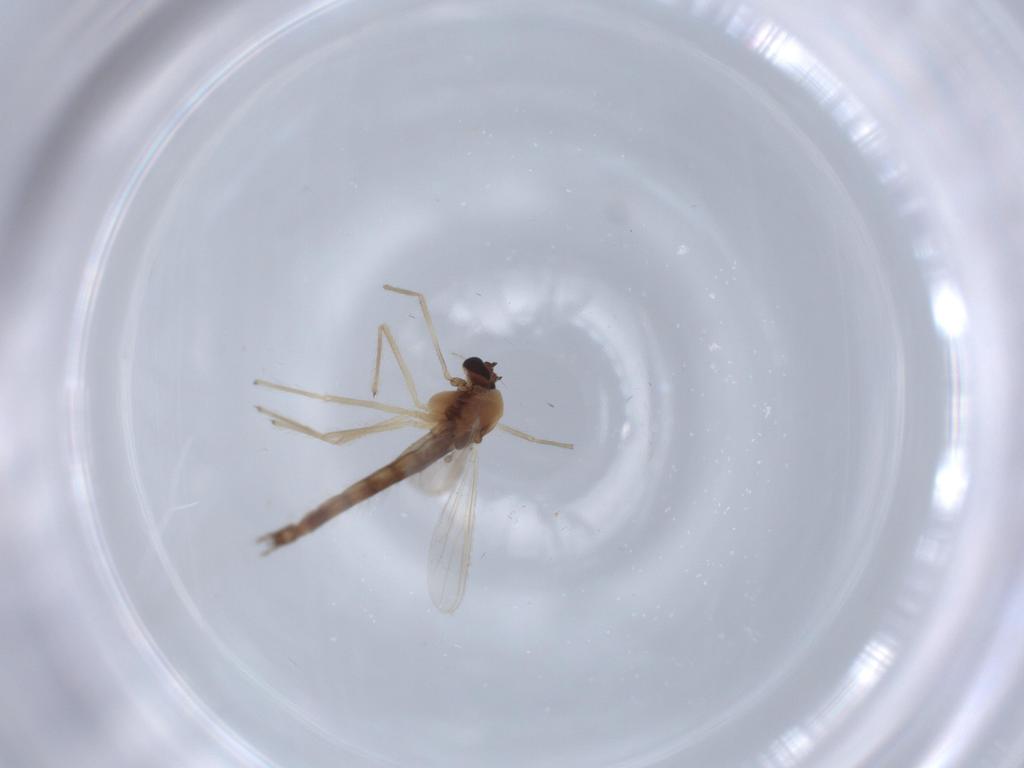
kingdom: Animalia
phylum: Arthropoda
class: Insecta
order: Diptera
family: Chironomidae
